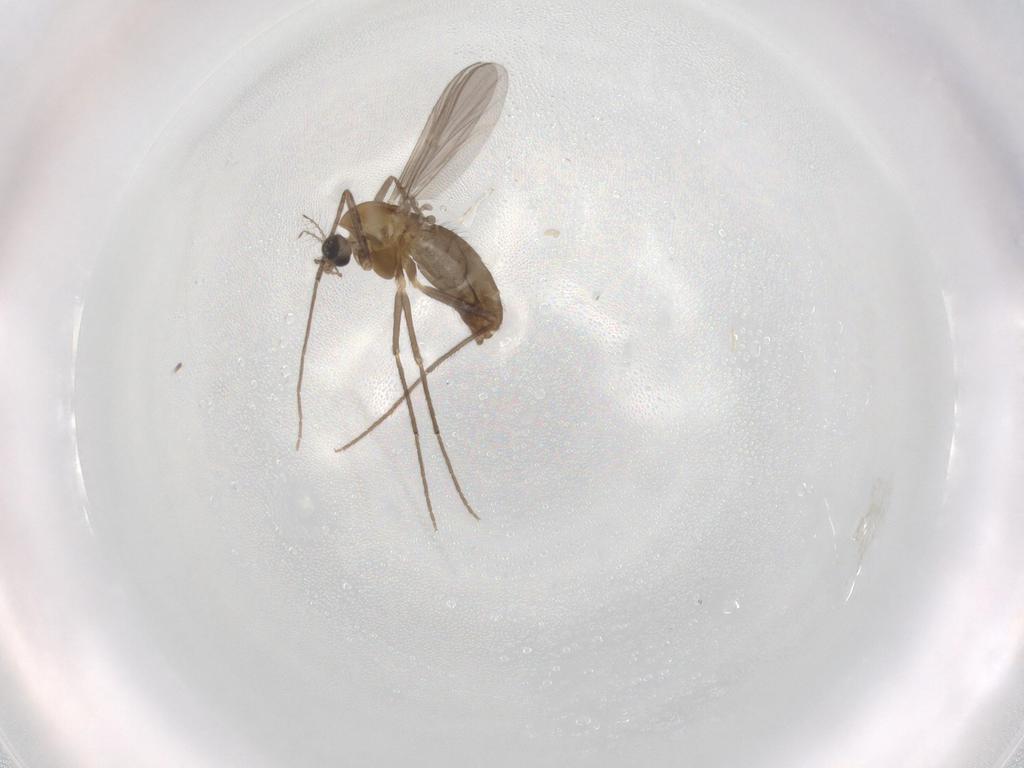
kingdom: Animalia
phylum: Arthropoda
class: Insecta
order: Diptera
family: Chironomidae
